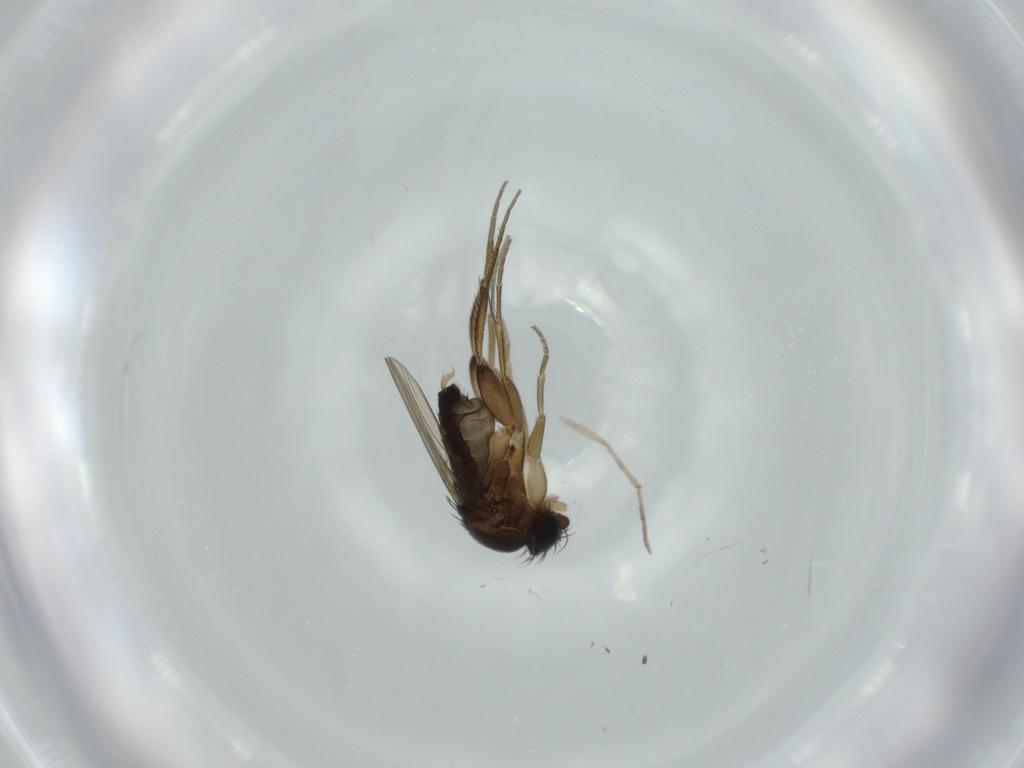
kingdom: Animalia
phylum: Arthropoda
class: Insecta
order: Diptera
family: Phoridae
